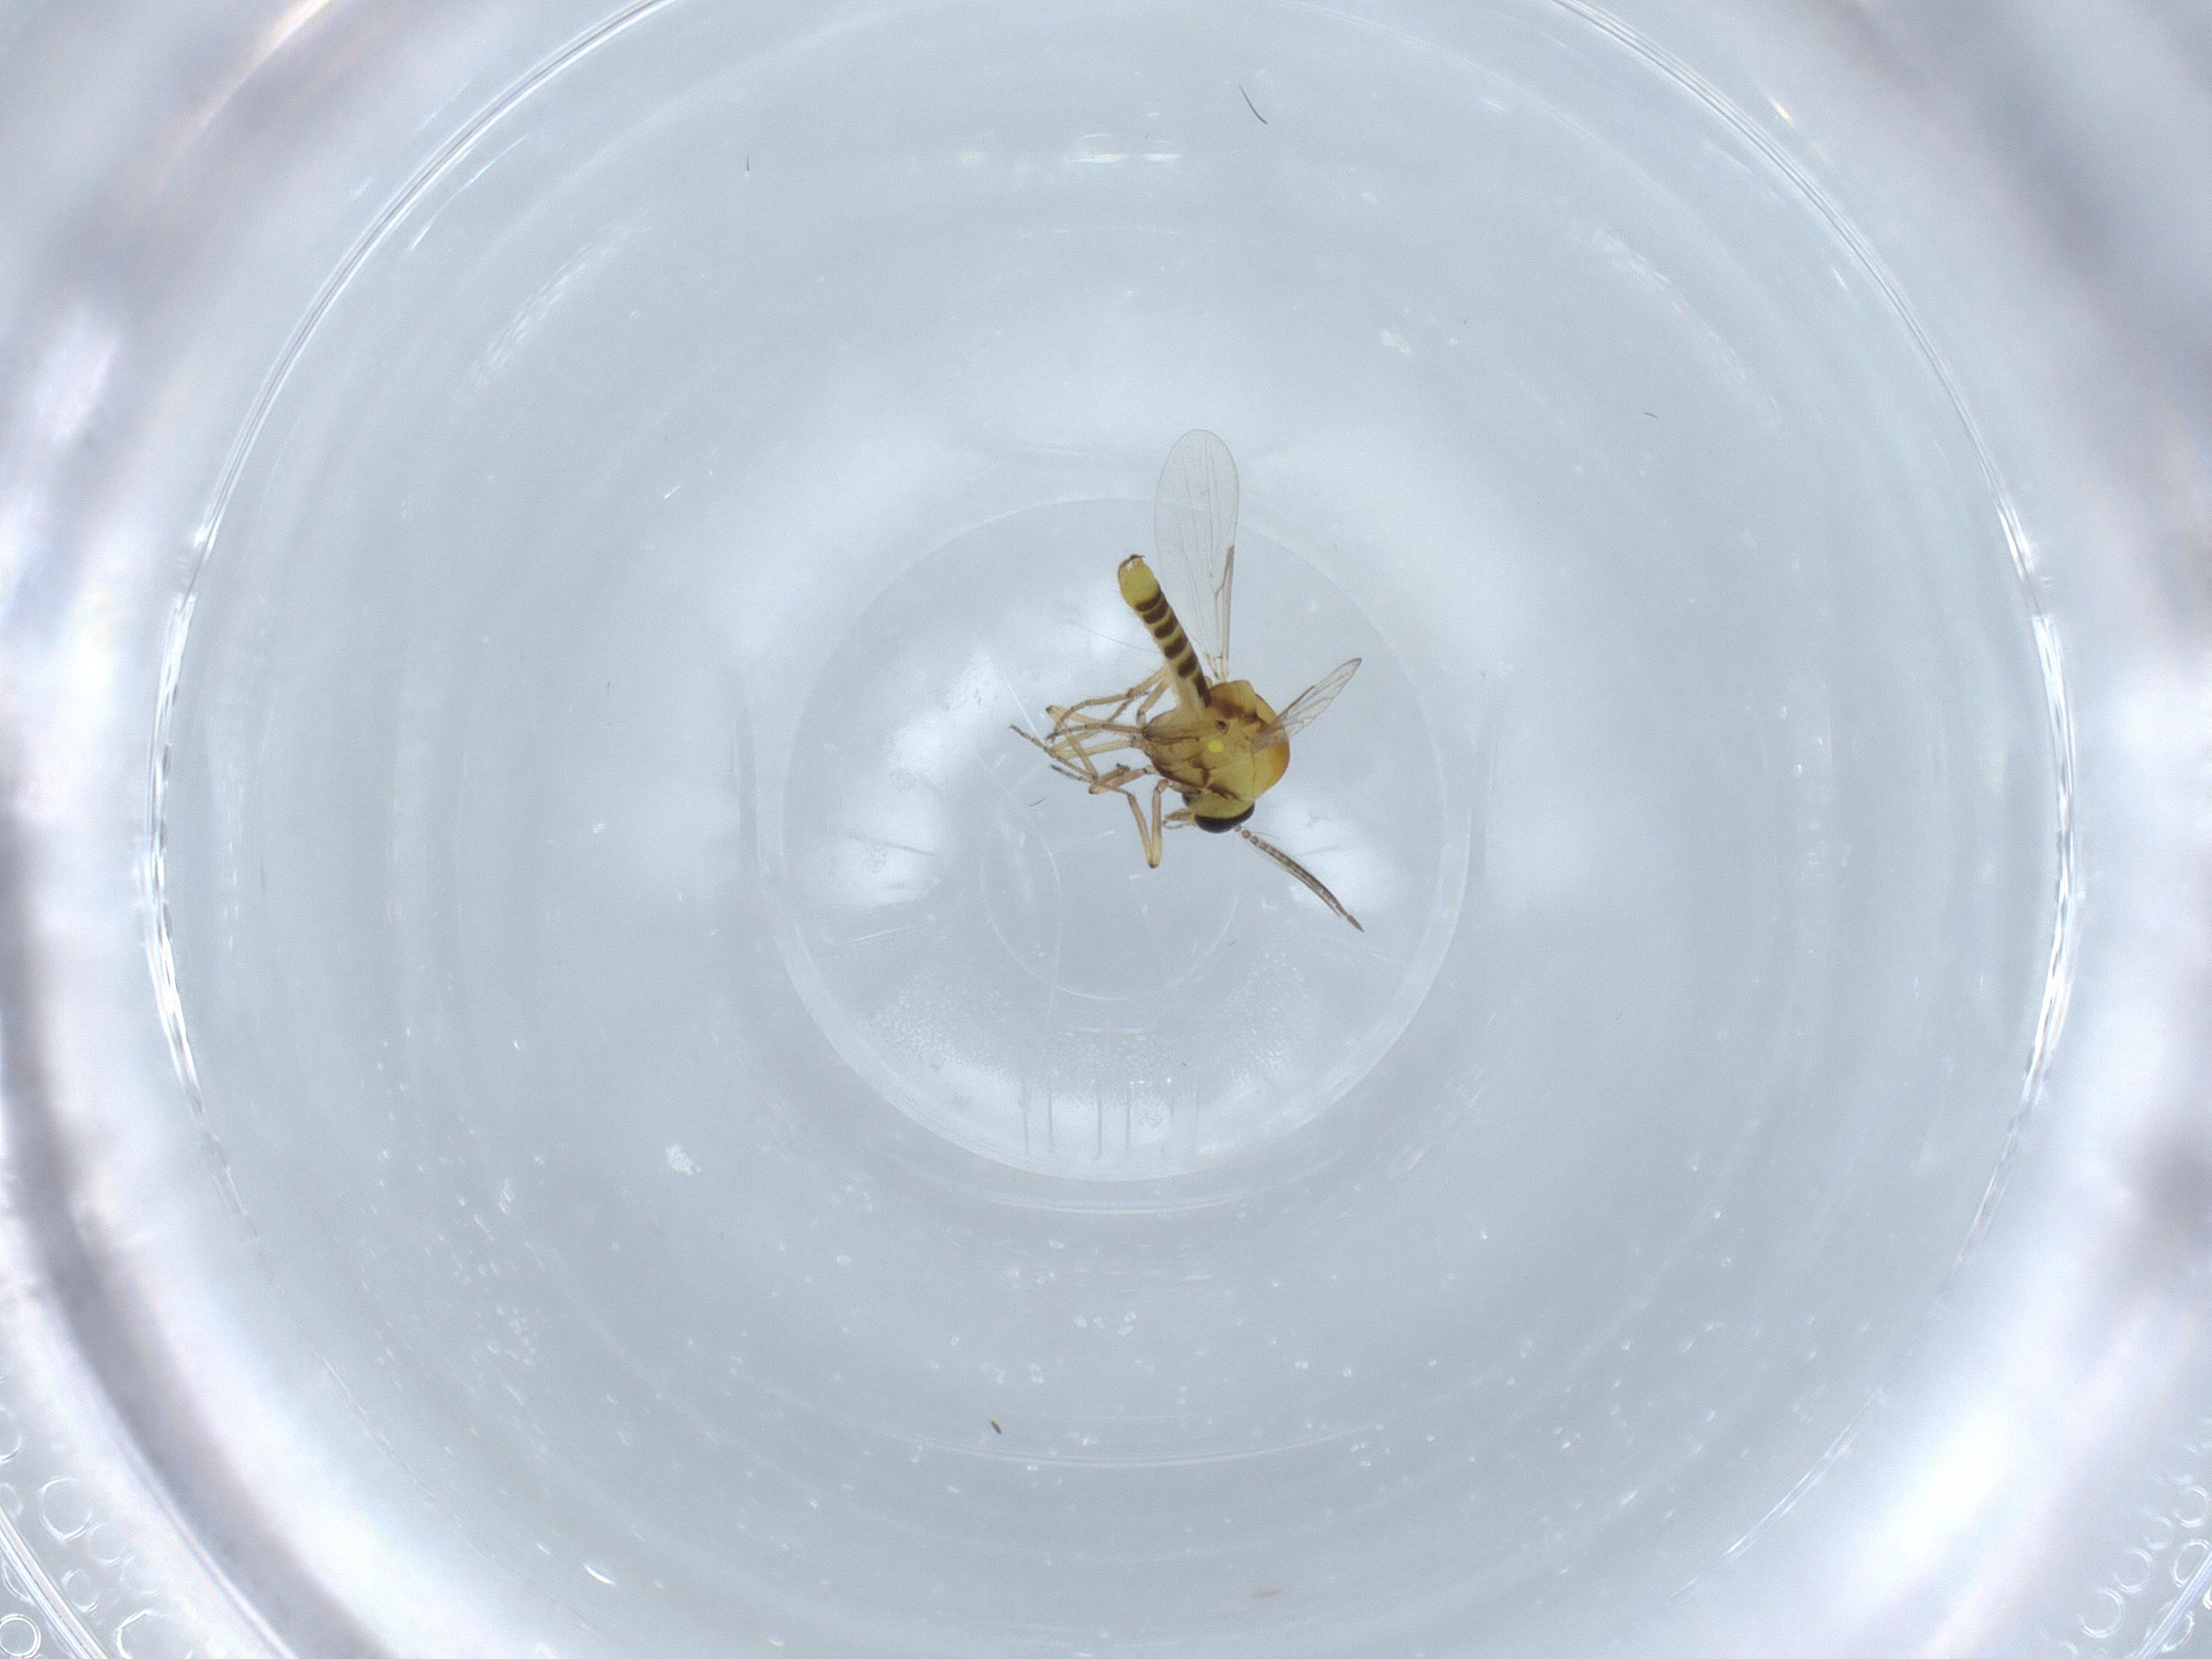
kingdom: Animalia
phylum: Arthropoda
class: Insecta
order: Diptera
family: Ceratopogonidae
